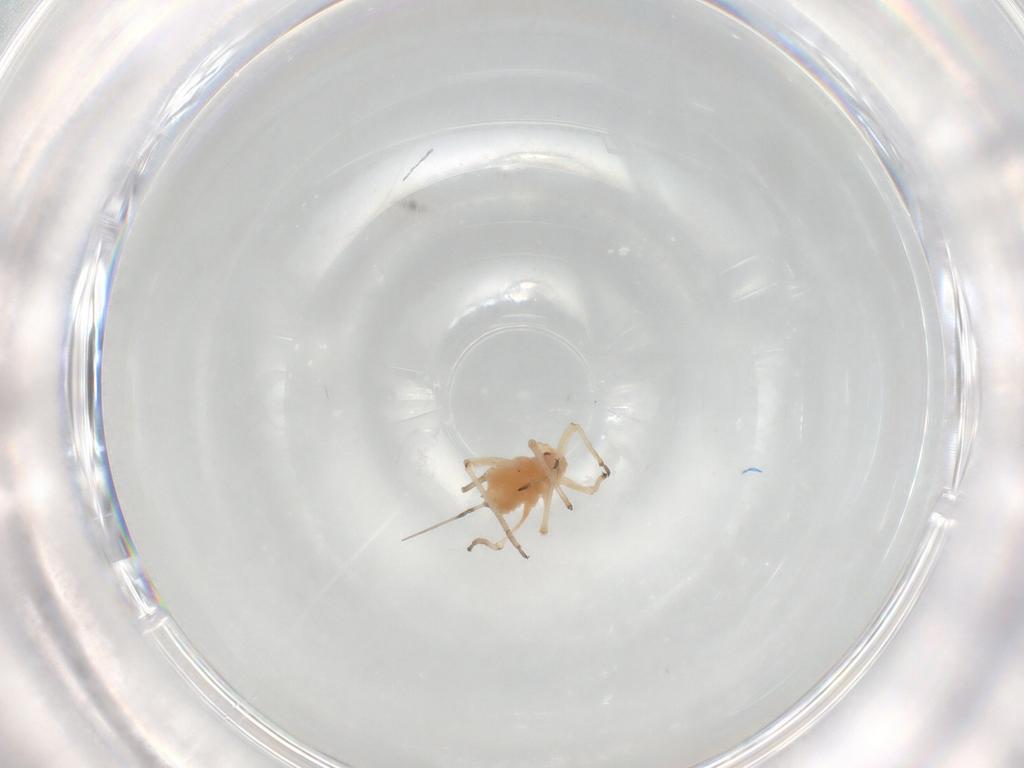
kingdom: Animalia
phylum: Arthropoda
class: Insecta
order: Hemiptera
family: Aphididae
